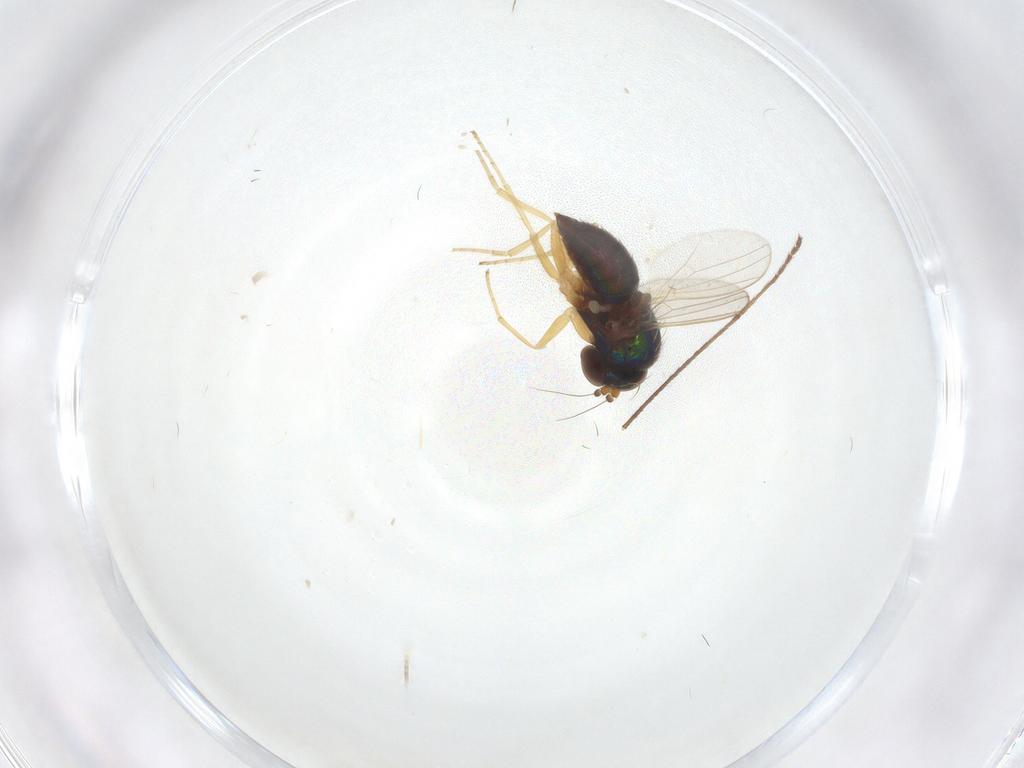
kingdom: Animalia
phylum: Arthropoda
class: Insecta
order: Diptera
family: Dolichopodidae
